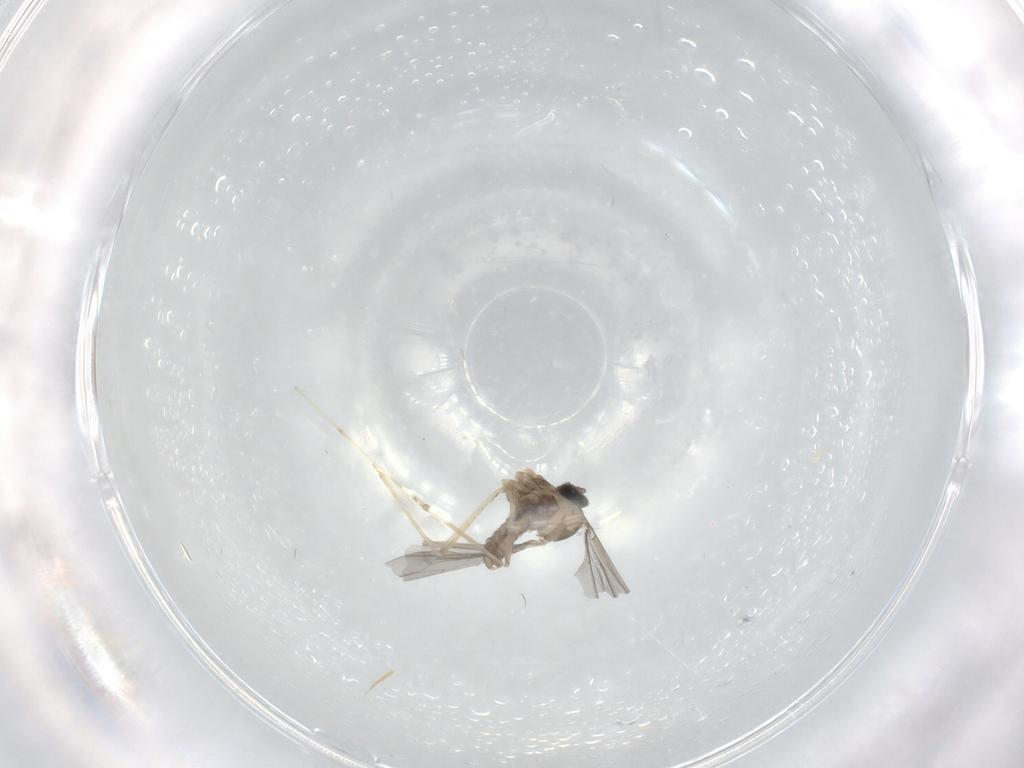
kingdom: Animalia
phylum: Arthropoda
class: Insecta
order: Diptera
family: Cecidomyiidae
